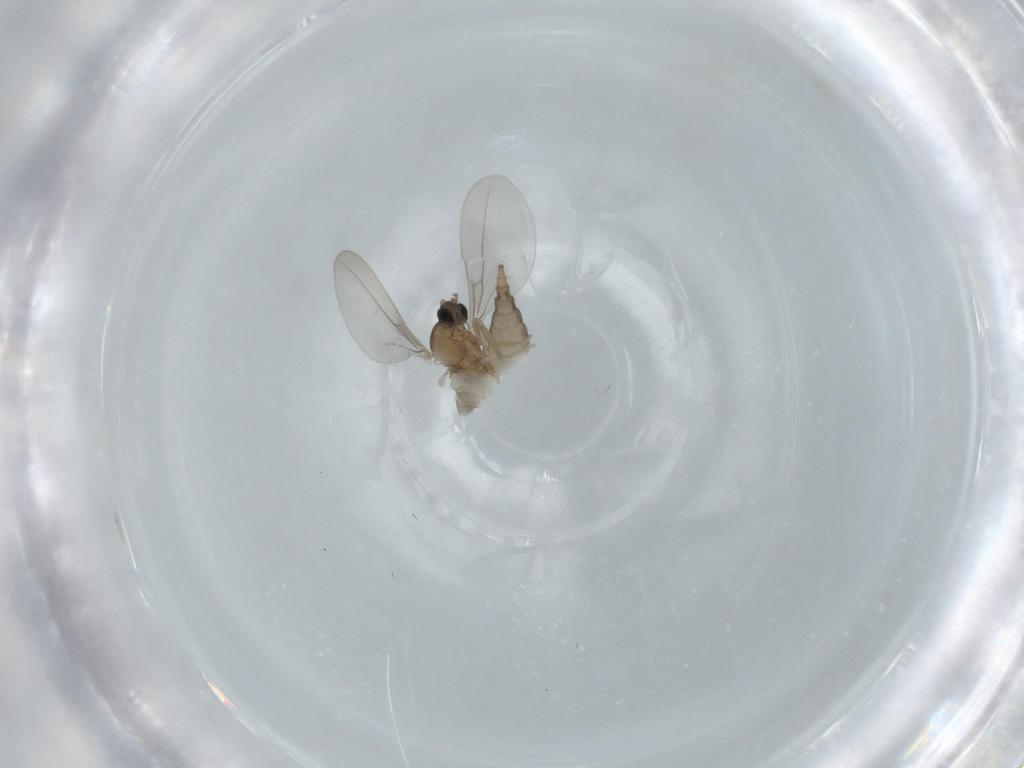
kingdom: Animalia
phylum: Arthropoda
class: Insecta
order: Diptera
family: Cecidomyiidae
